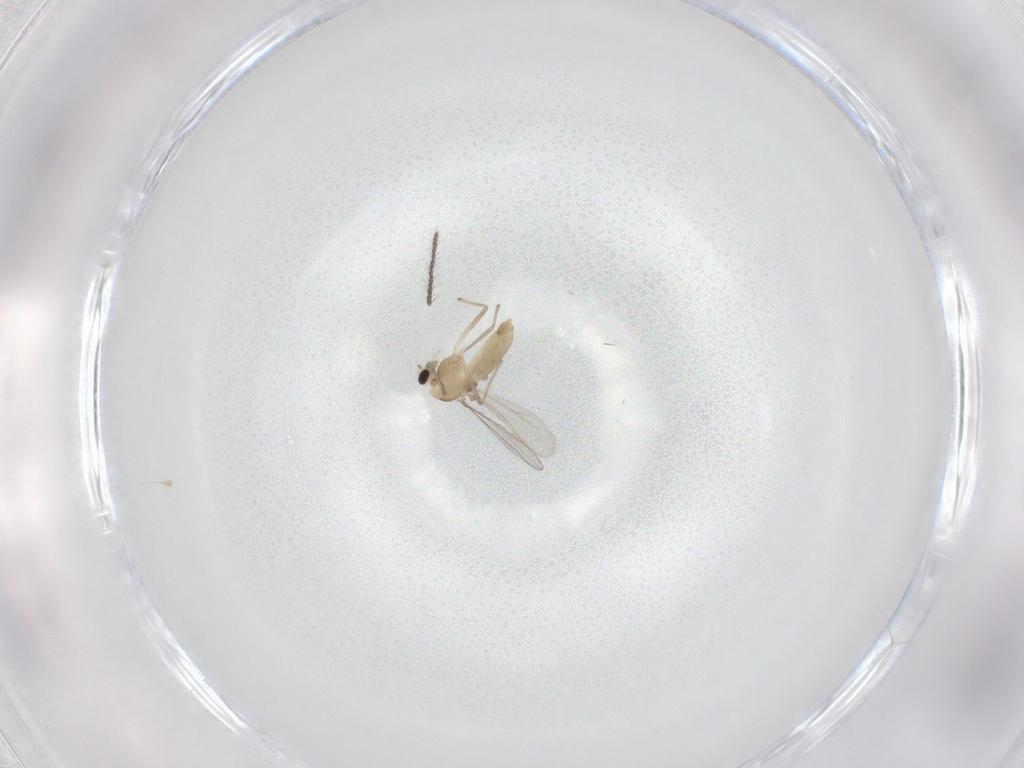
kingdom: Animalia
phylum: Arthropoda
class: Insecta
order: Diptera
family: Chironomidae
